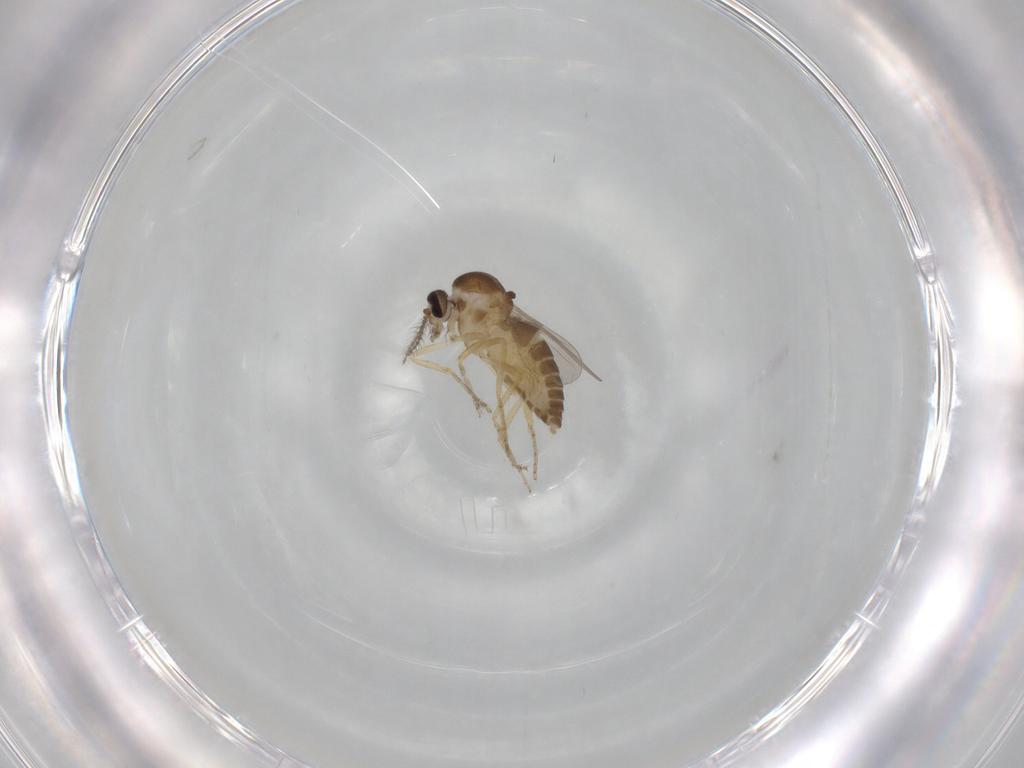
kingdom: Animalia
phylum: Arthropoda
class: Insecta
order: Diptera
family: Ceratopogonidae
